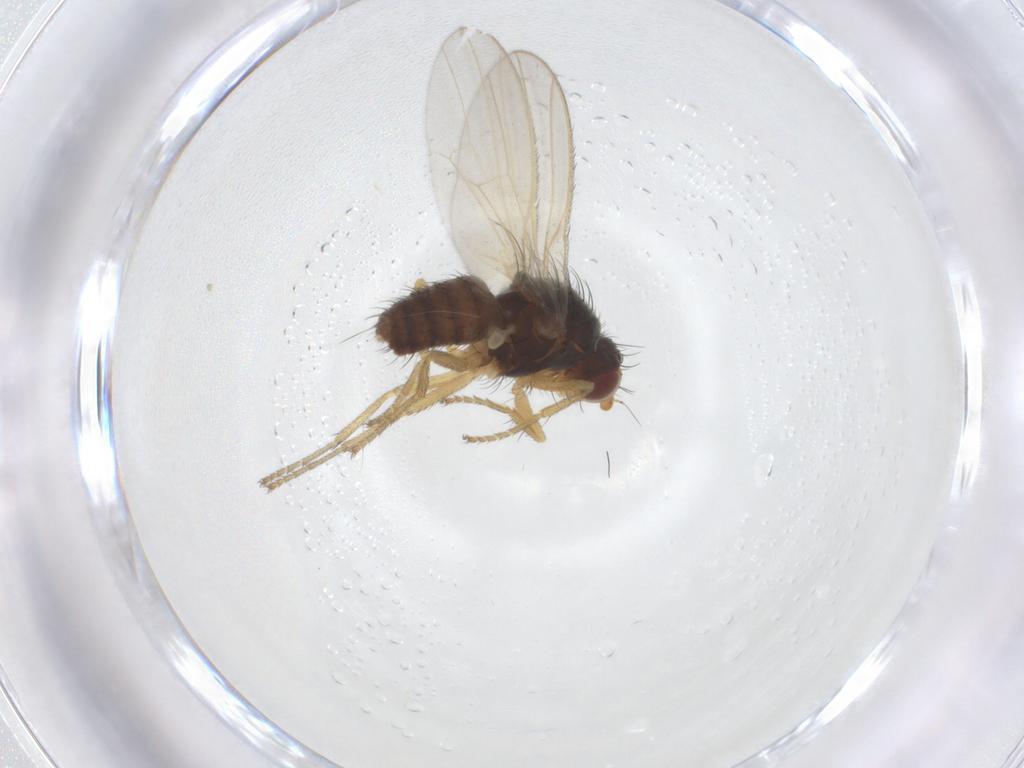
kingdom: Animalia
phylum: Arthropoda
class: Insecta
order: Diptera
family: Heleomyzidae
